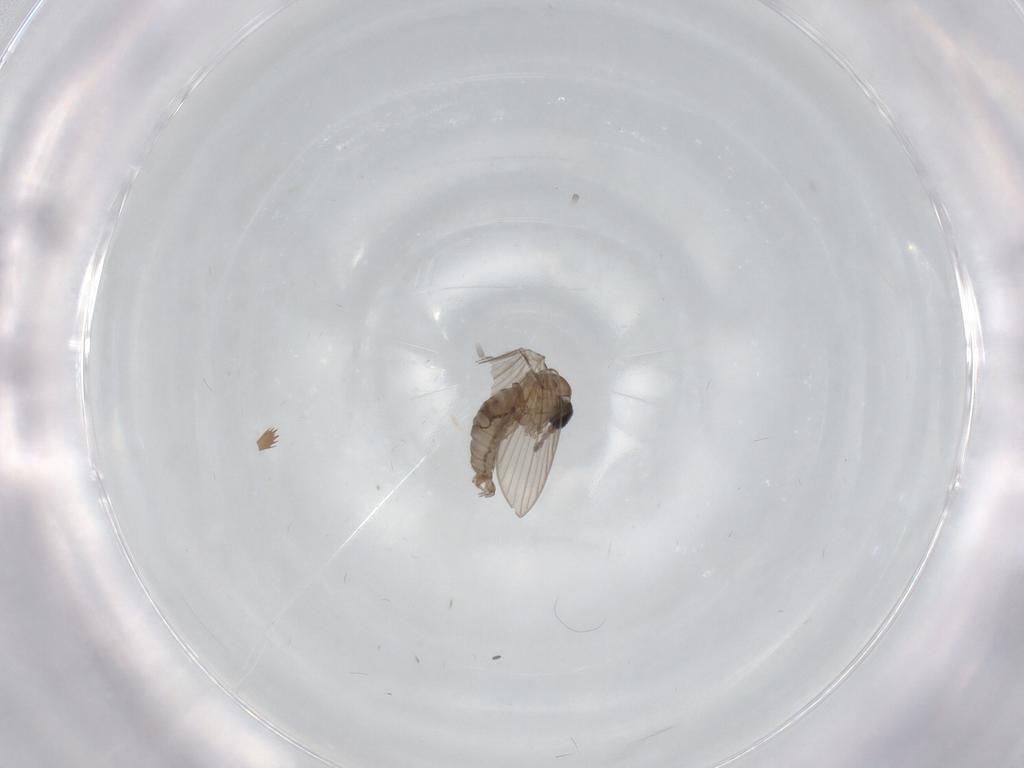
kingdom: Animalia
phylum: Arthropoda
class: Insecta
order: Diptera
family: Psychodidae
